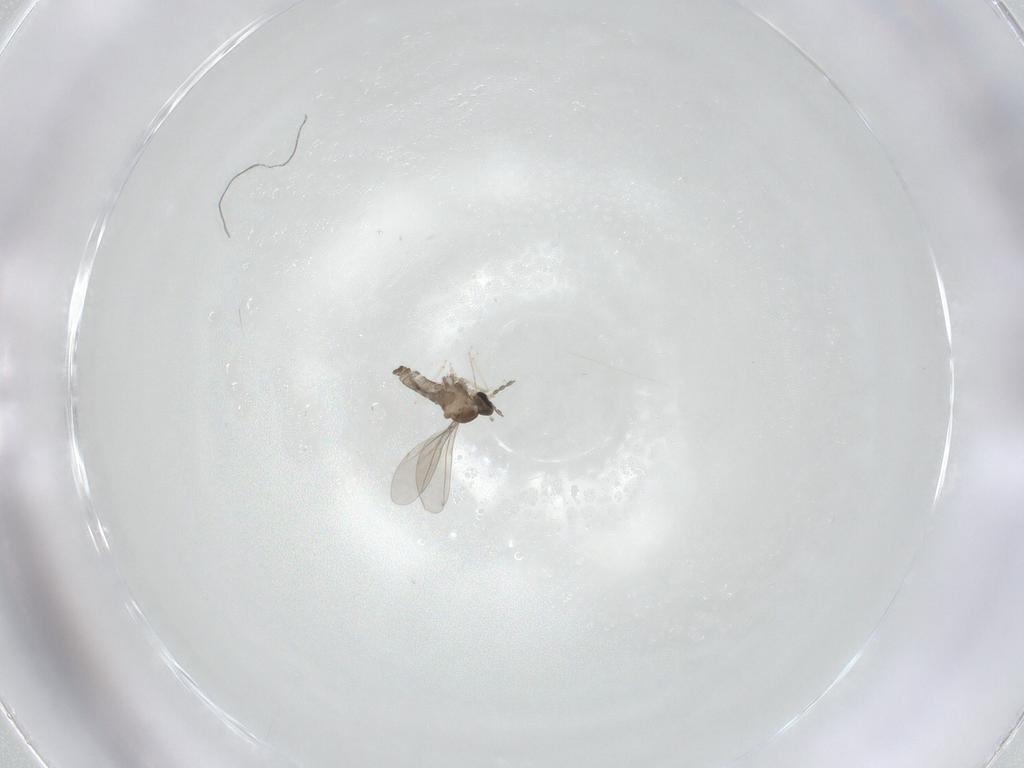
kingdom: Animalia
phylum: Arthropoda
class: Insecta
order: Diptera
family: Cecidomyiidae
